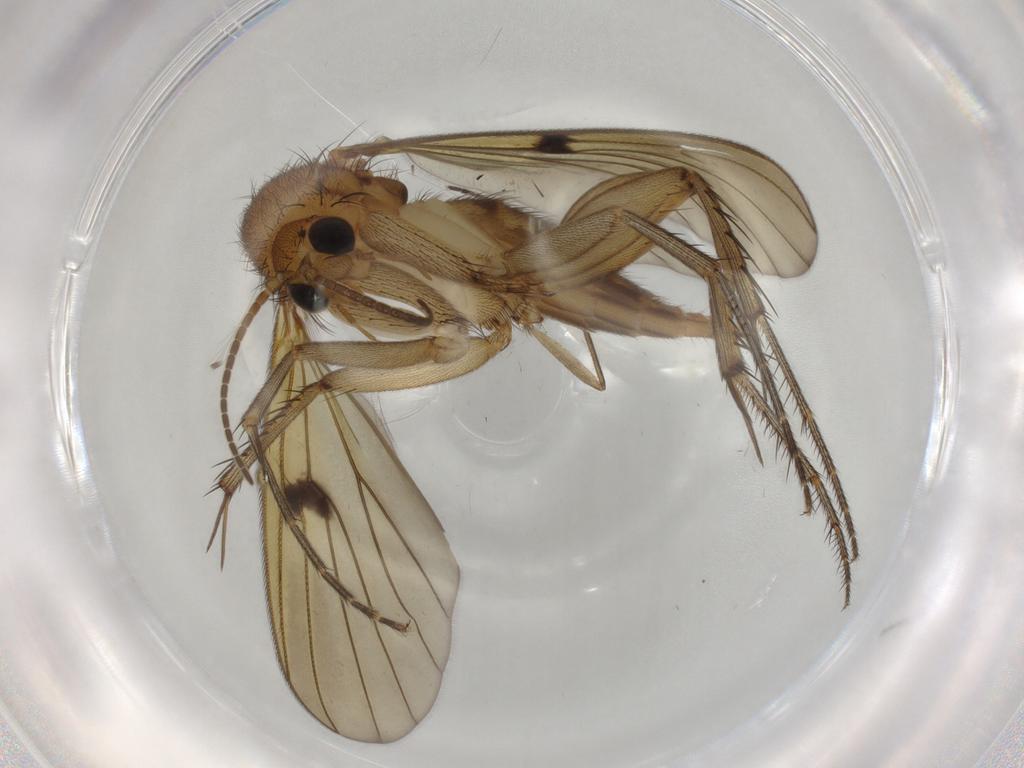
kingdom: Animalia
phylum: Arthropoda
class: Insecta
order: Diptera
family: Mycetophilidae
